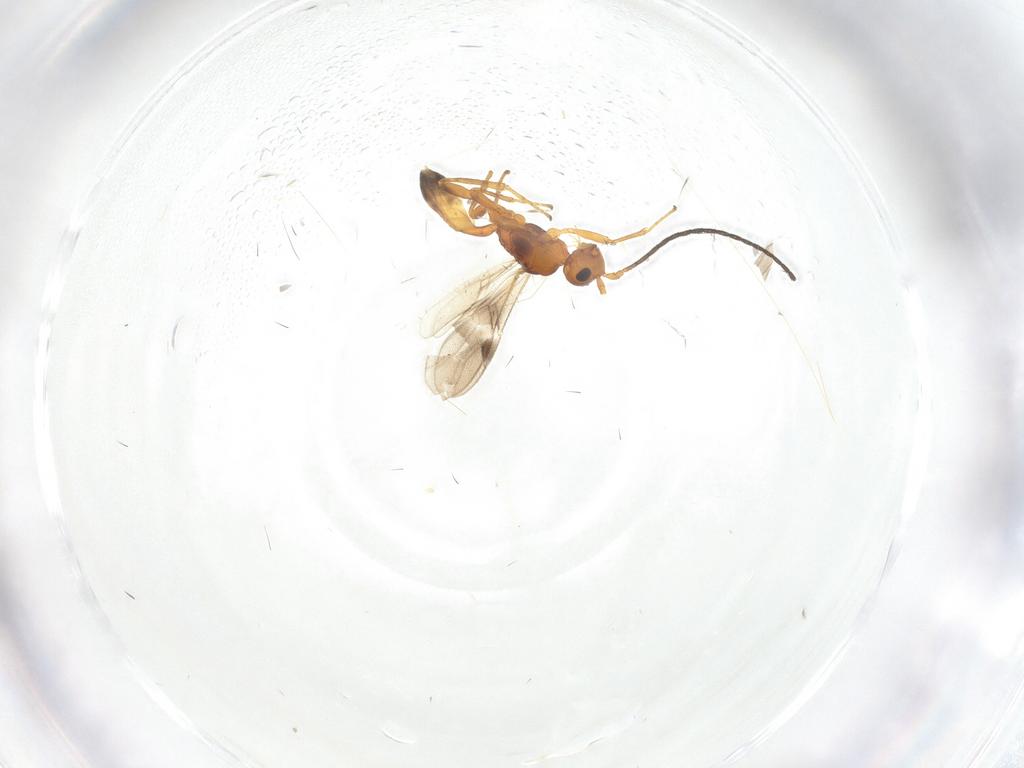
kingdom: Animalia
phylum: Arthropoda
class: Insecta
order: Hymenoptera
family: Braconidae
